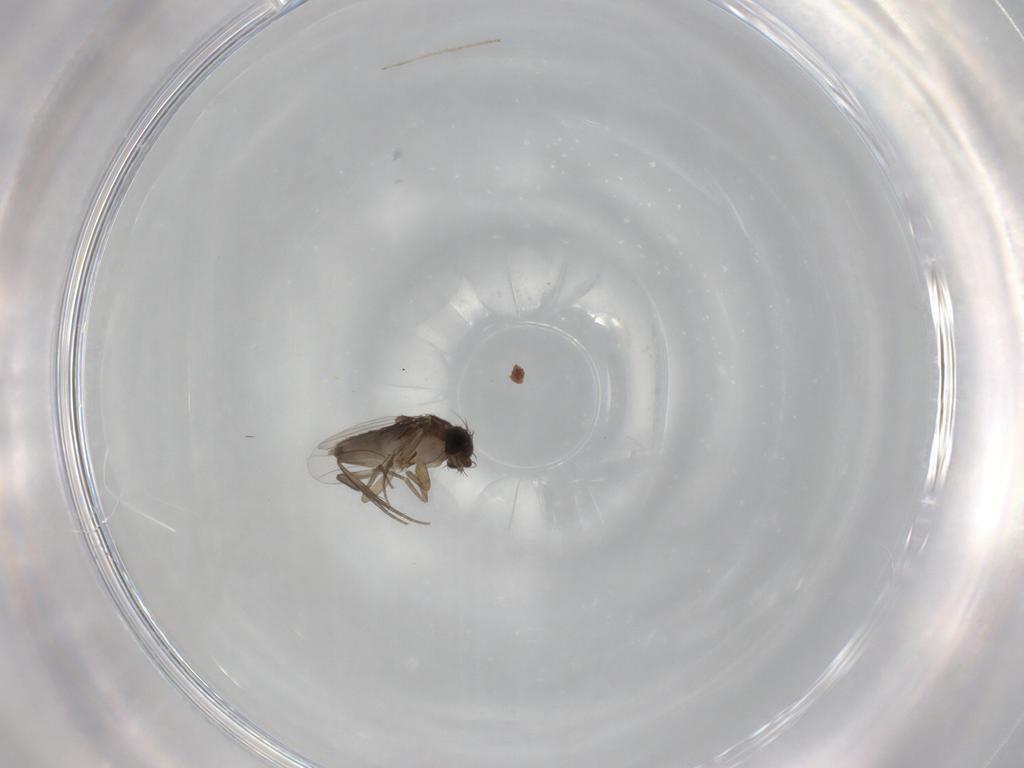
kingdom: Animalia
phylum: Arthropoda
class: Insecta
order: Diptera
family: Phoridae
